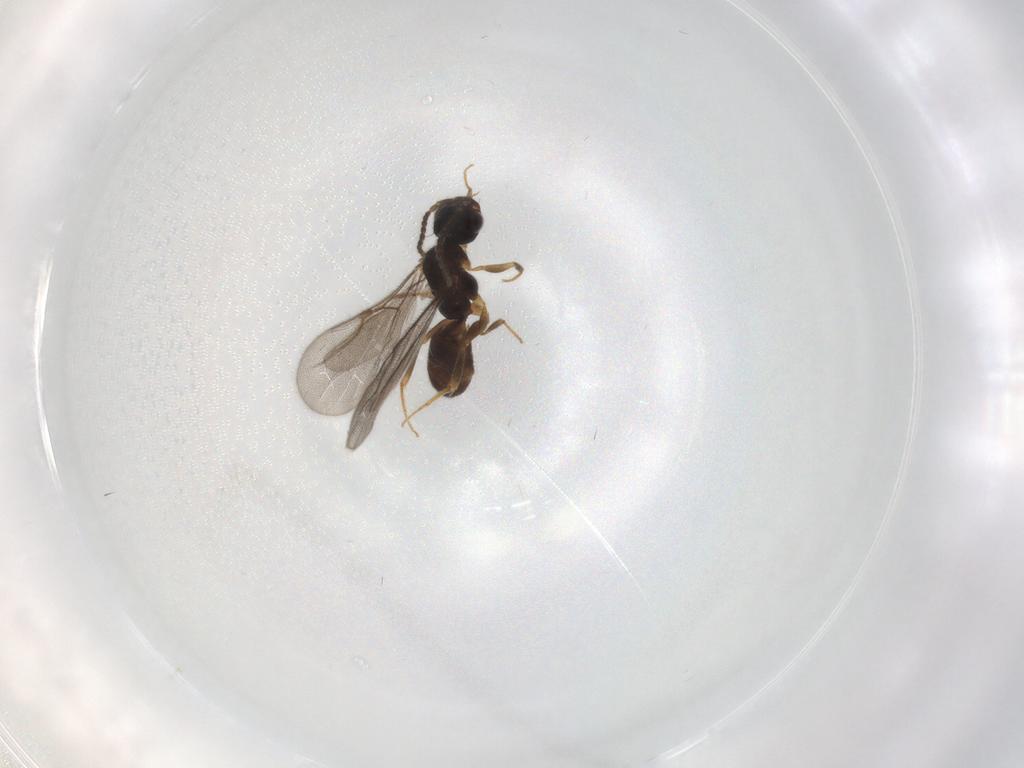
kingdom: Animalia
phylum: Arthropoda
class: Insecta
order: Hymenoptera
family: Bethylidae
